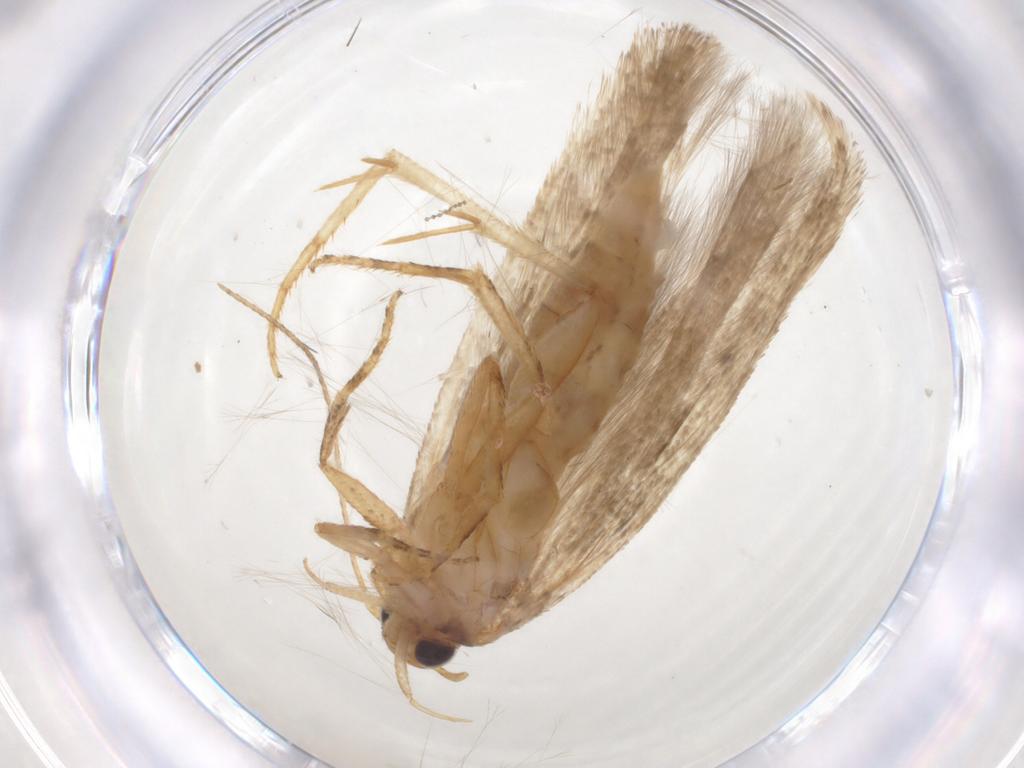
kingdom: Animalia
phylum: Arthropoda
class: Insecta
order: Lepidoptera
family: Gelechiidae
